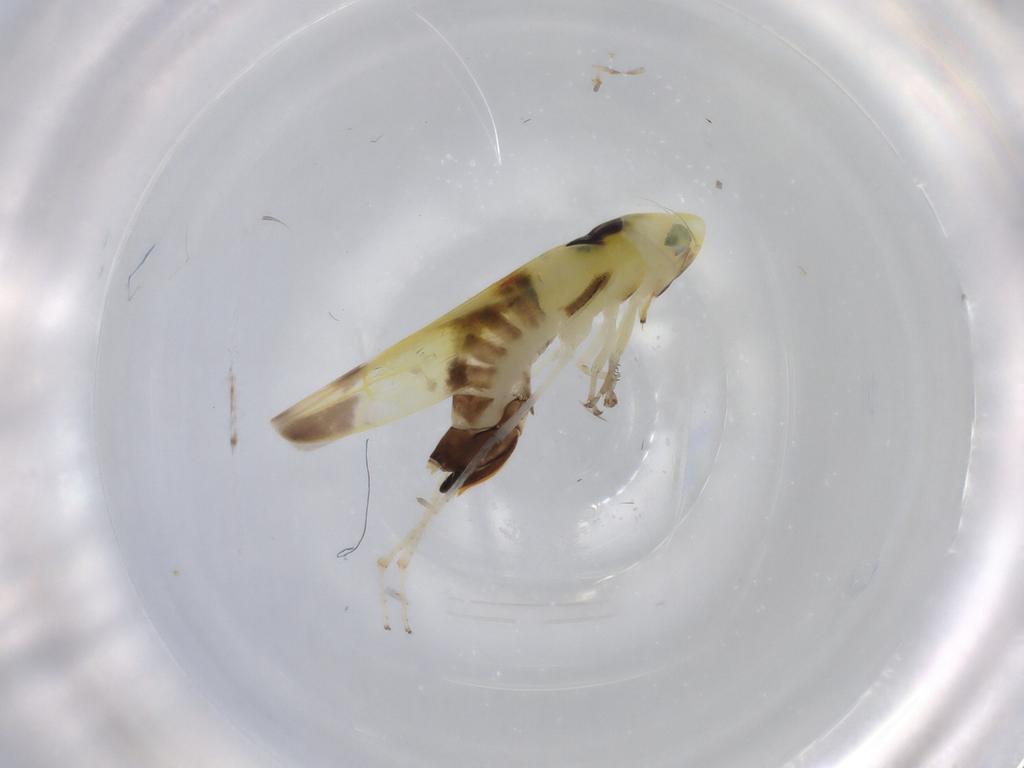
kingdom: Animalia
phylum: Arthropoda
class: Insecta
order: Hemiptera
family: Cicadellidae
